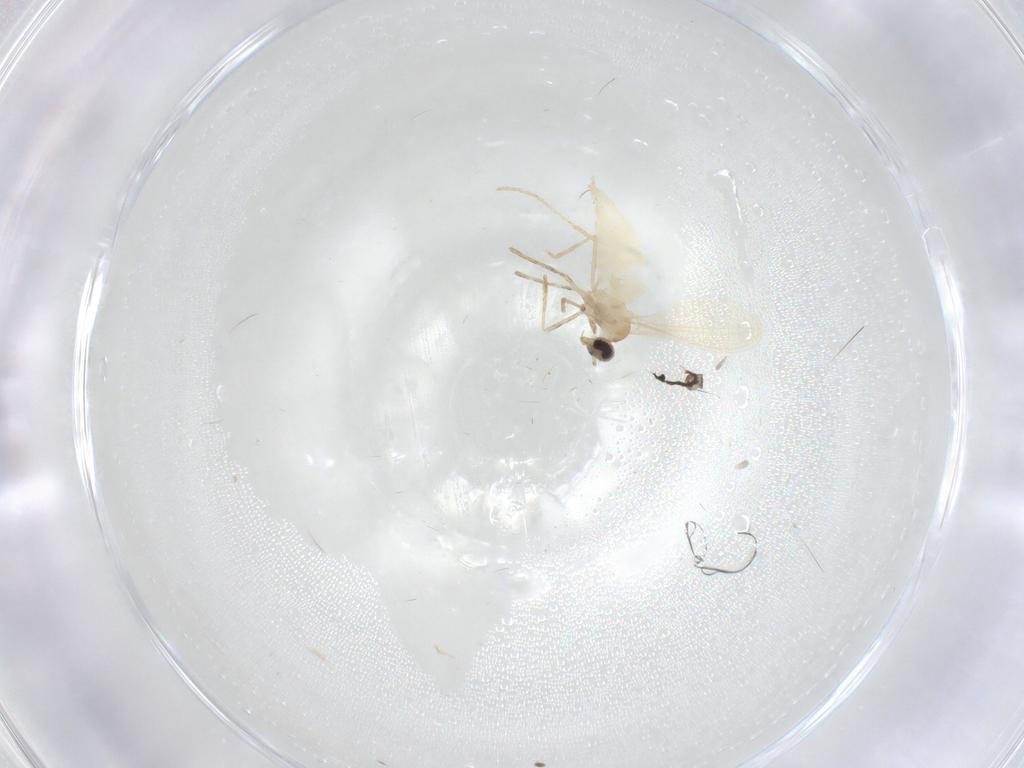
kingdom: Animalia
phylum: Arthropoda
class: Insecta
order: Diptera
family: Cecidomyiidae
